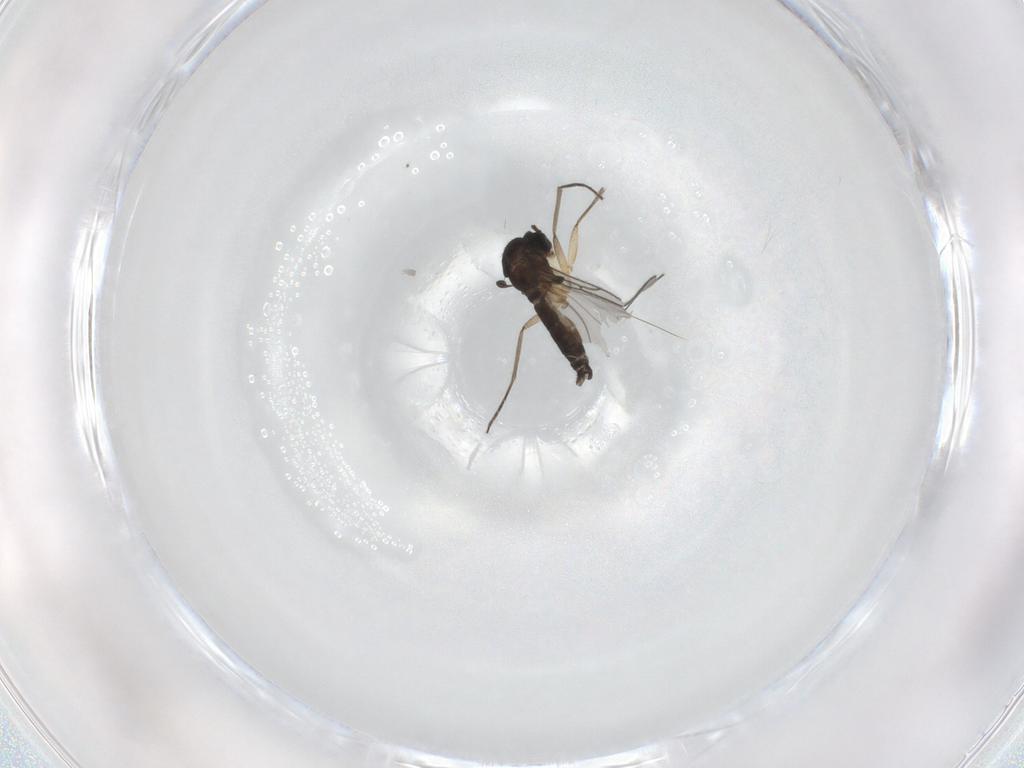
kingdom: Animalia
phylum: Arthropoda
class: Insecta
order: Diptera
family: Sciaridae
